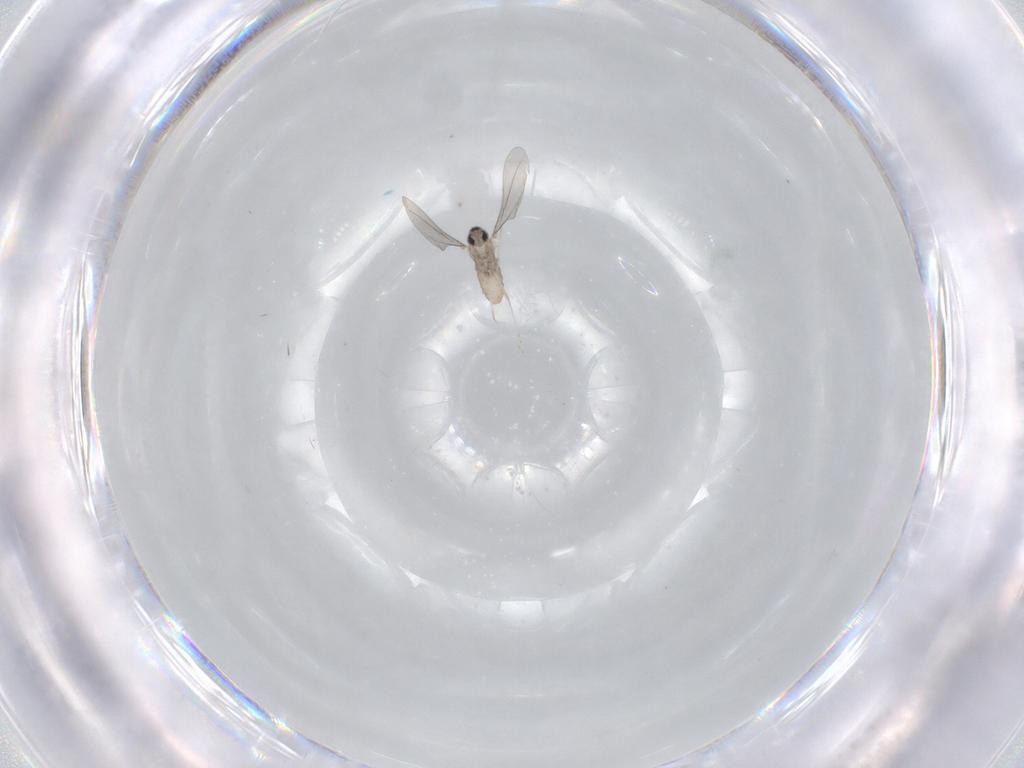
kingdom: Animalia
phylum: Arthropoda
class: Insecta
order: Diptera
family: Cecidomyiidae
